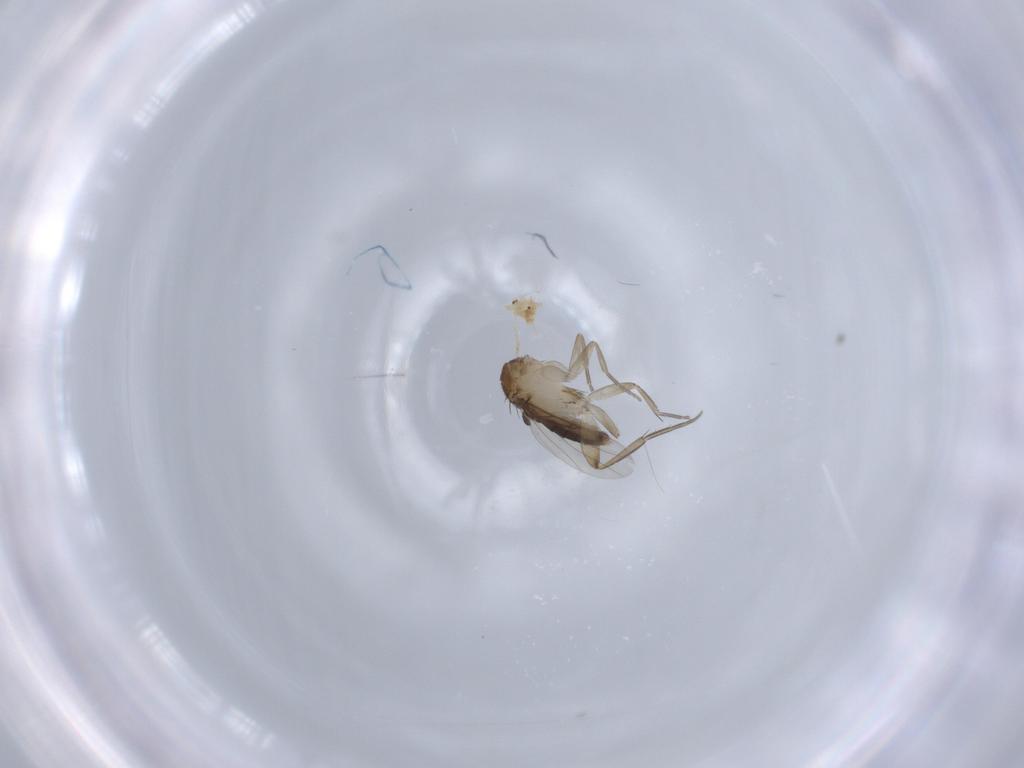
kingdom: Animalia
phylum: Arthropoda
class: Insecta
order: Diptera
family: Phoridae
